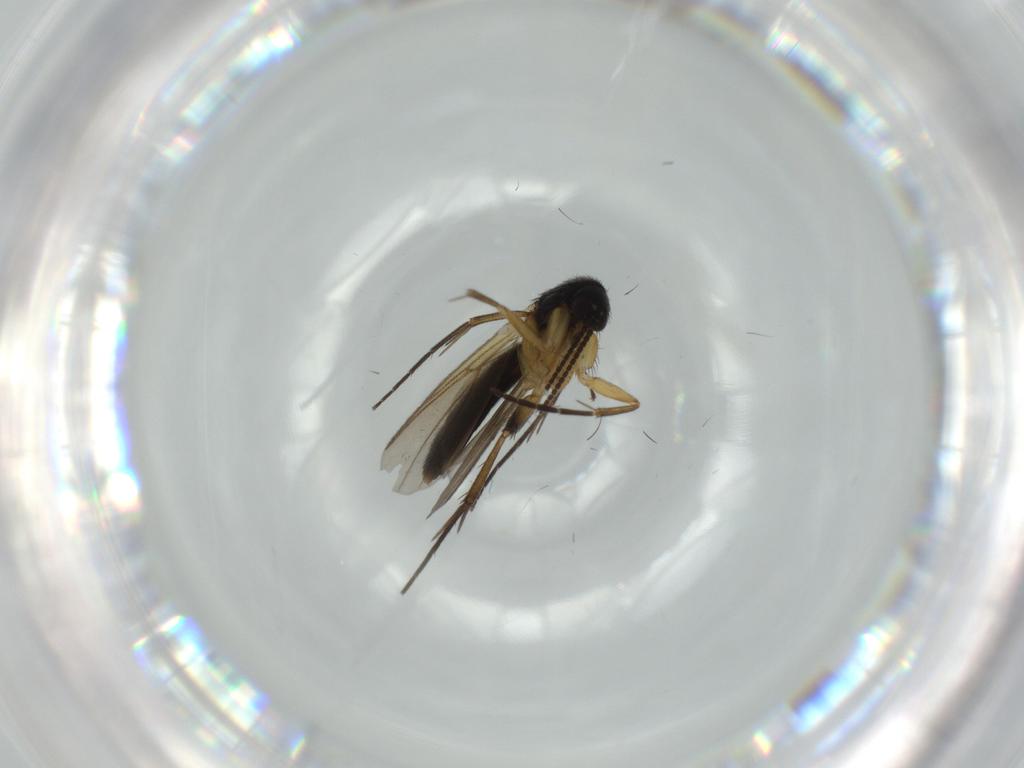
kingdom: Animalia
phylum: Arthropoda
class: Insecta
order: Diptera
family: Mycetophilidae
